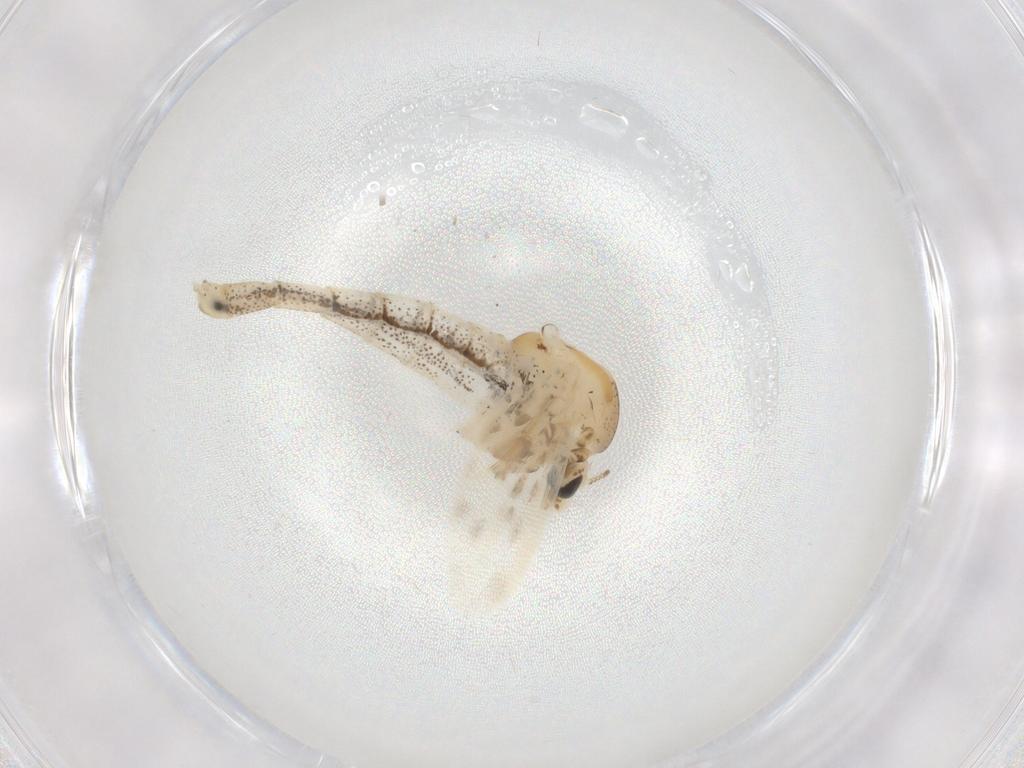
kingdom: Animalia
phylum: Arthropoda
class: Insecta
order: Diptera
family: Chaoboridae
